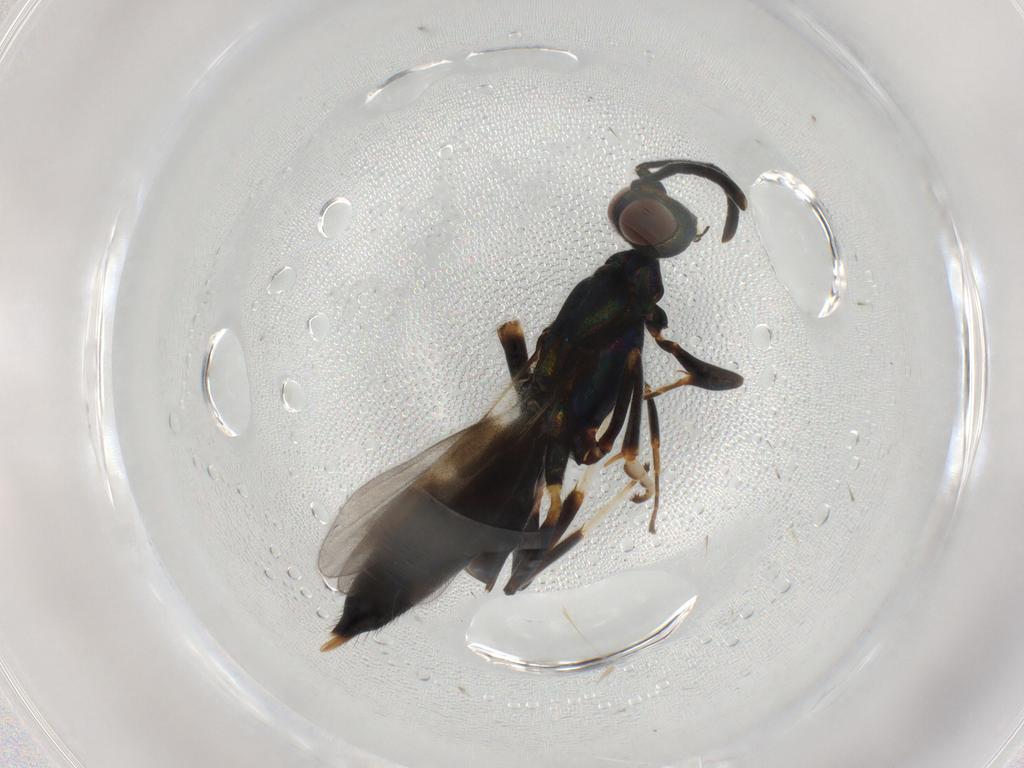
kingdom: Animalia
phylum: Arthropoda
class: Insecta
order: Hymenoptera
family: Eupelmidae
